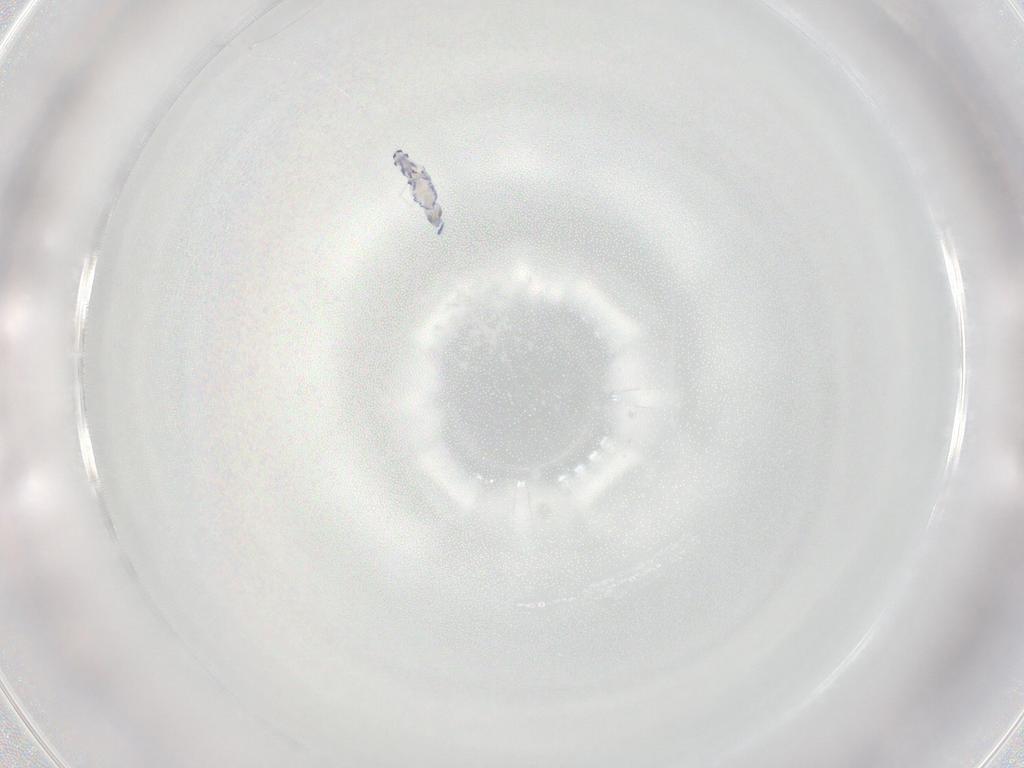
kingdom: Animalia
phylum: Arthropoda
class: Collembola
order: Entomobryomorpha
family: Entomobryidae
